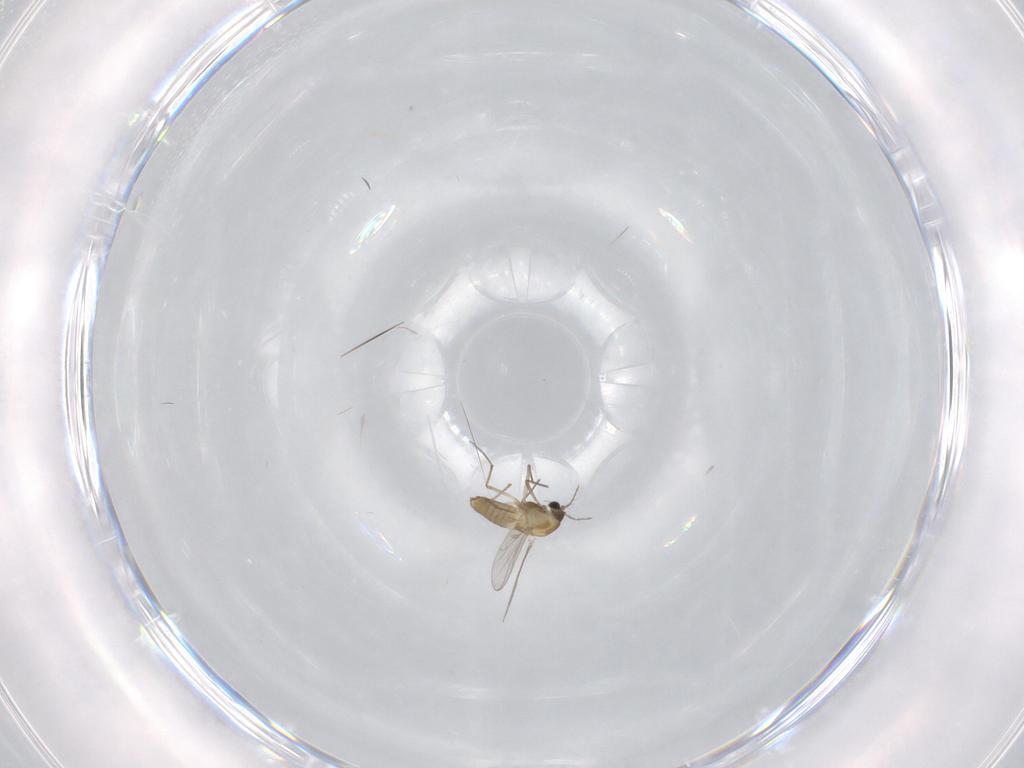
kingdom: Animalia
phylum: Arthropoda
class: Insecta
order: Diptera
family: Chironomidae
